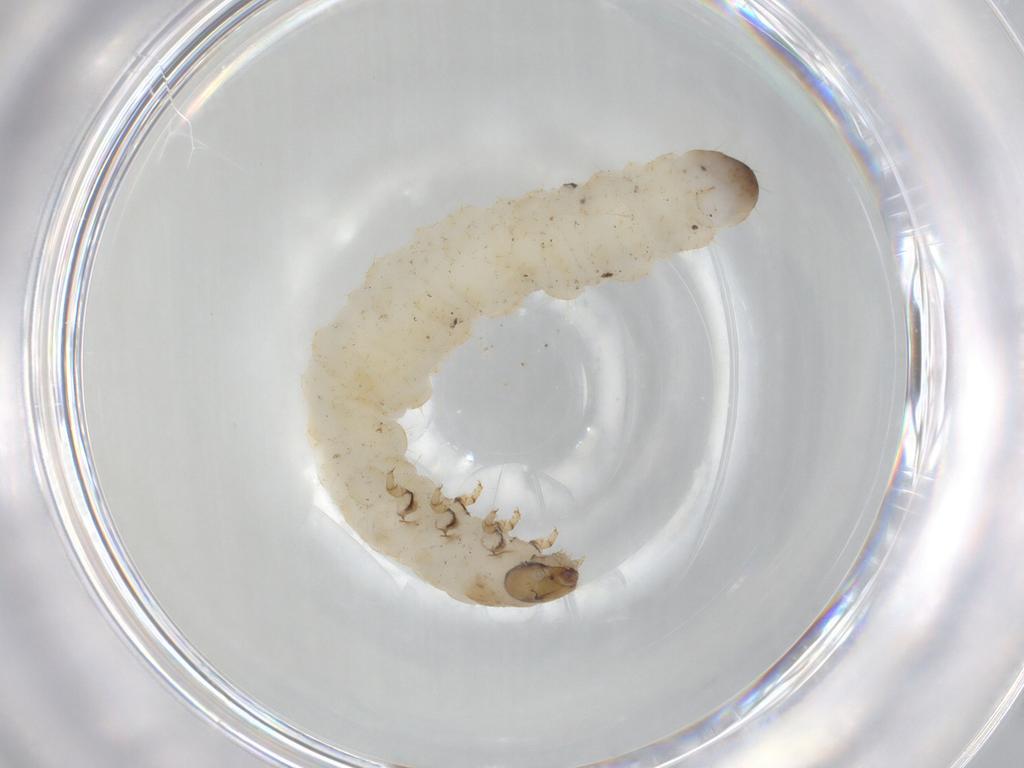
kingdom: Animalia
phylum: Arthropoda
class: Insecta
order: Coleoptera
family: Chrysomelidae
